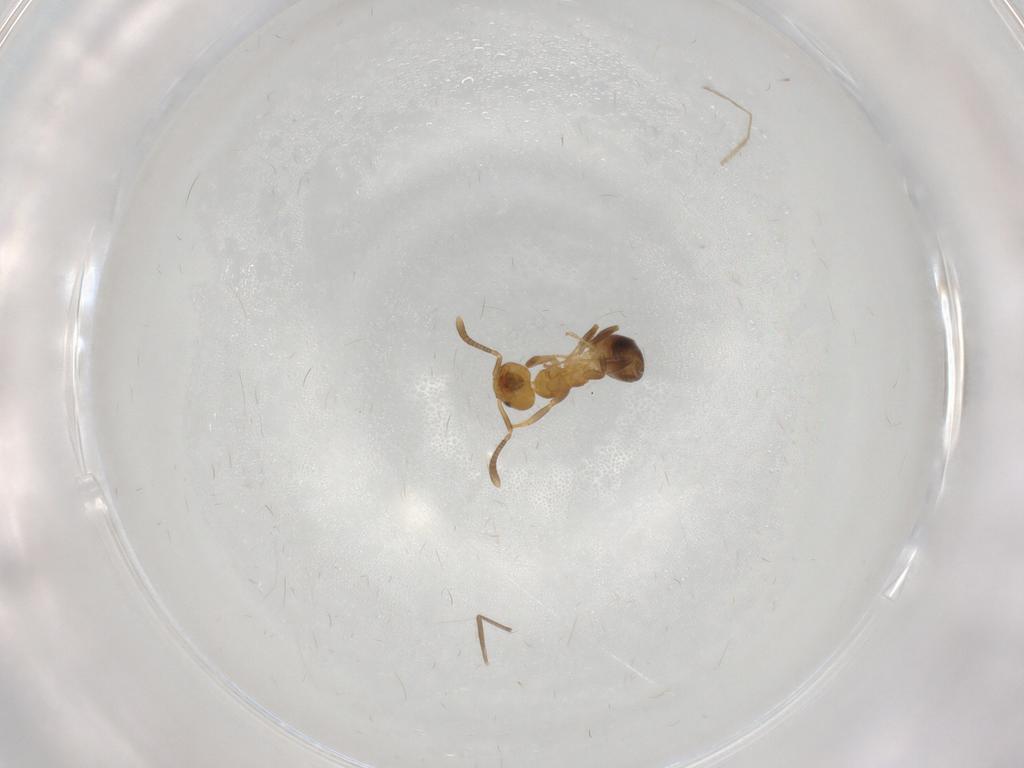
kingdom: Animalia
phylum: Arthropoda
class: Insecta
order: Hymenoptera
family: Formicidae
